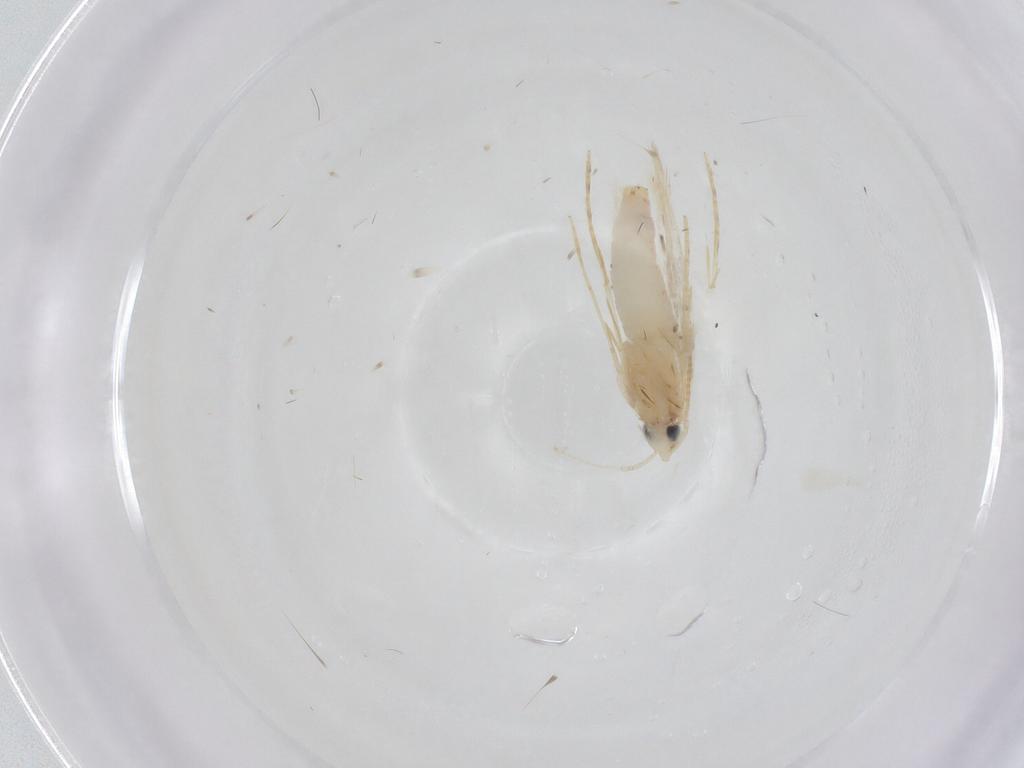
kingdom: Animalia
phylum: Arthropoda
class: Insecta
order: Lepidoptera
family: Tineidae
